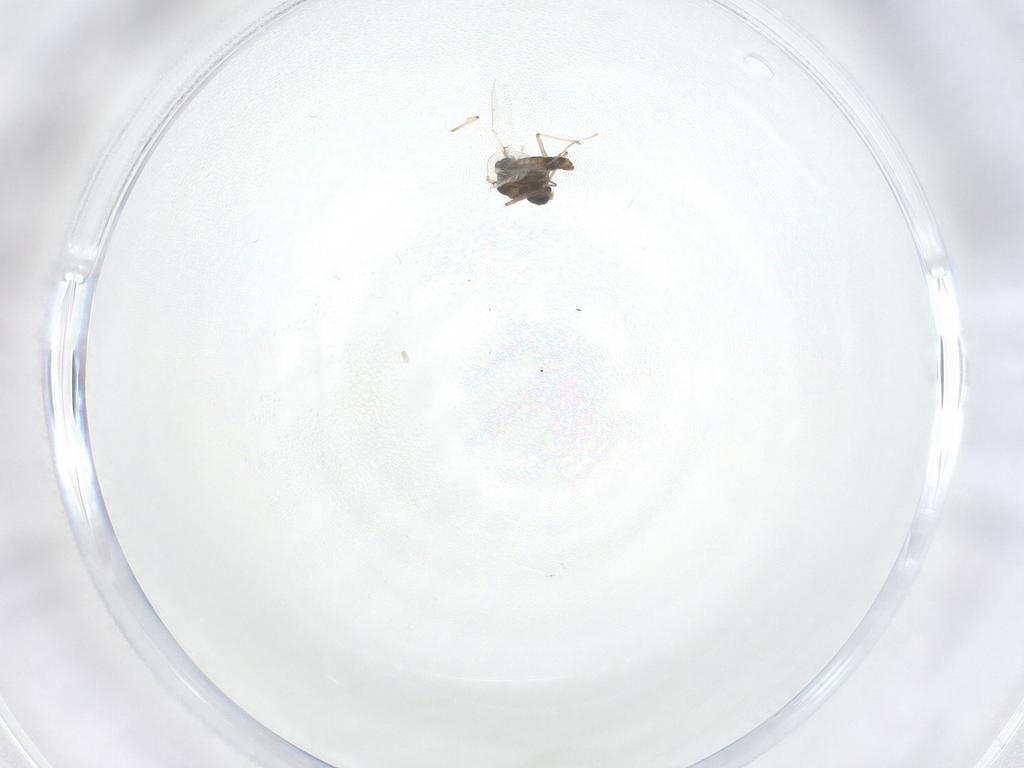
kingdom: Animalia
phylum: Arthropoda
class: Insecta
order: Diptera
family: Chironomidae
